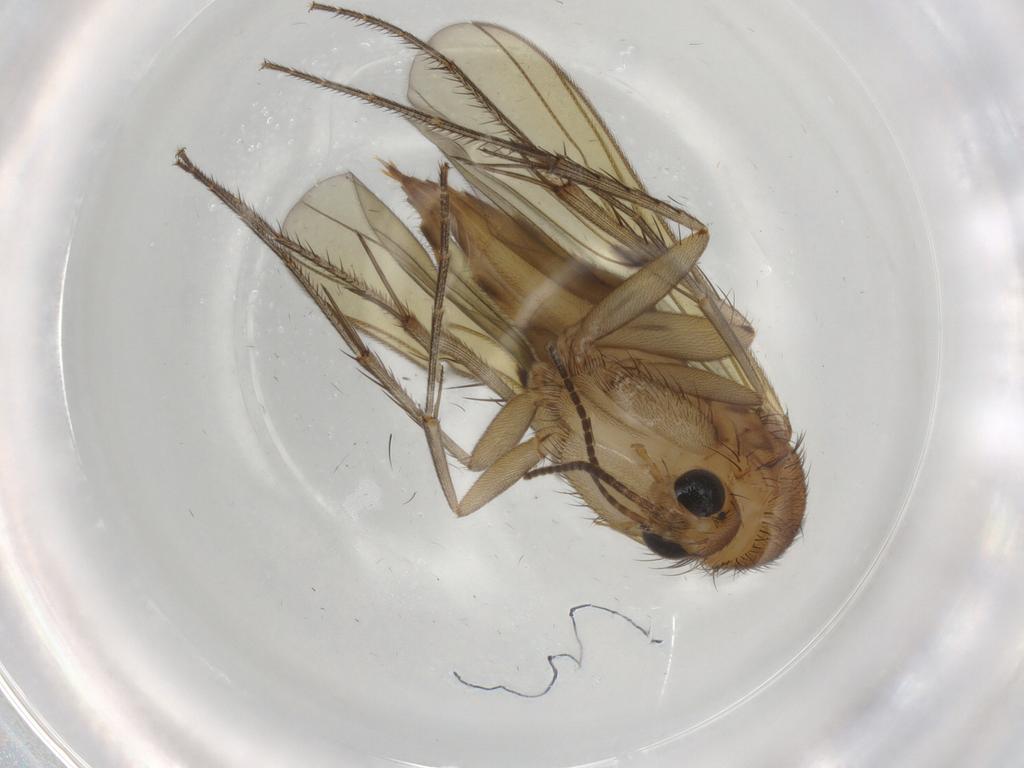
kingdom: Animalia
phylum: Arthropoda
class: Insecta
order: Diptera
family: Mycetophilidae
